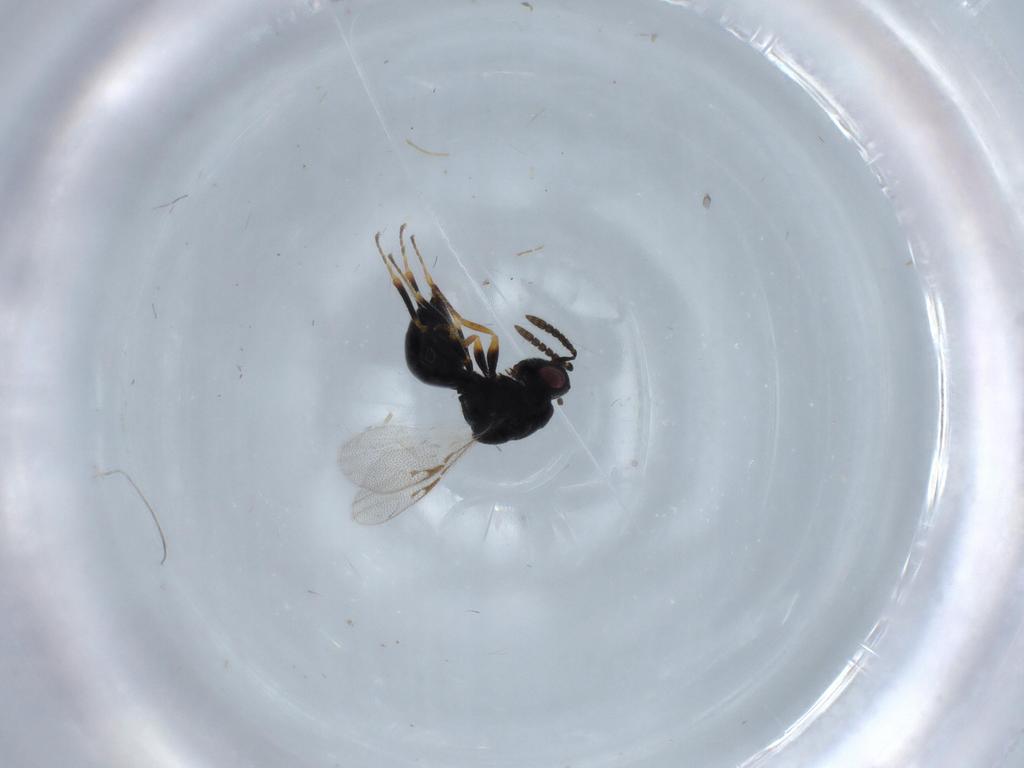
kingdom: Animalia
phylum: Arthropoda
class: Insecta
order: Hymenoptera
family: Eurytomidae
